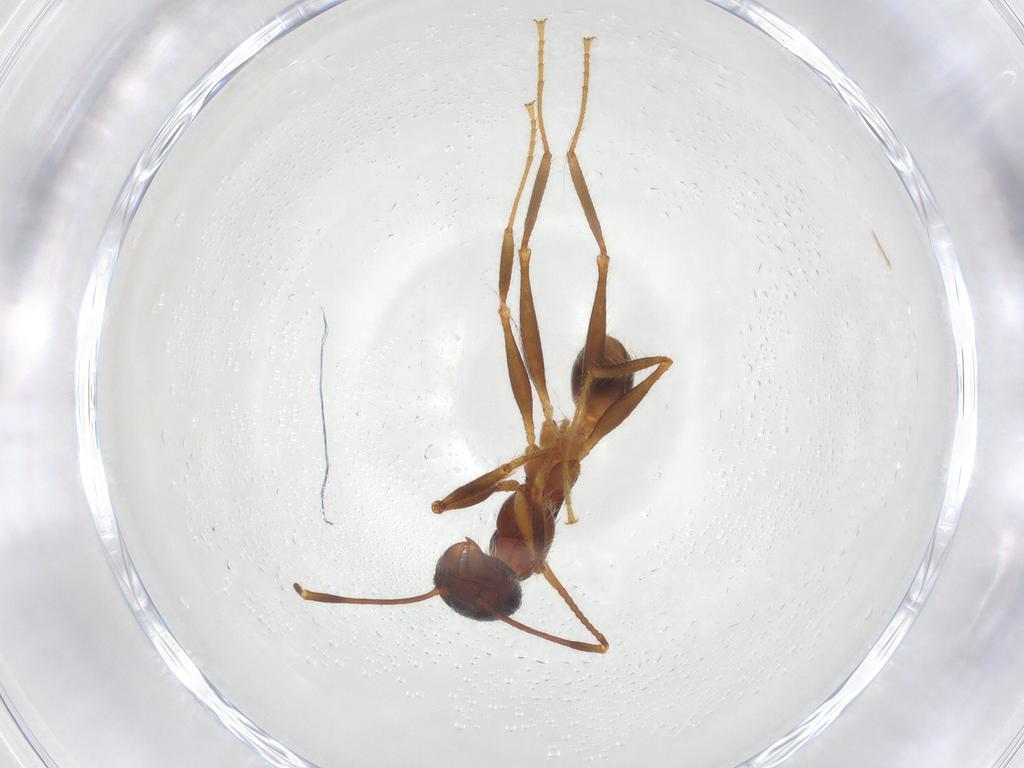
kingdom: Animalia
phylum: Arthropoda
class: Insecta
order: Hymenoptera
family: Formicidae
